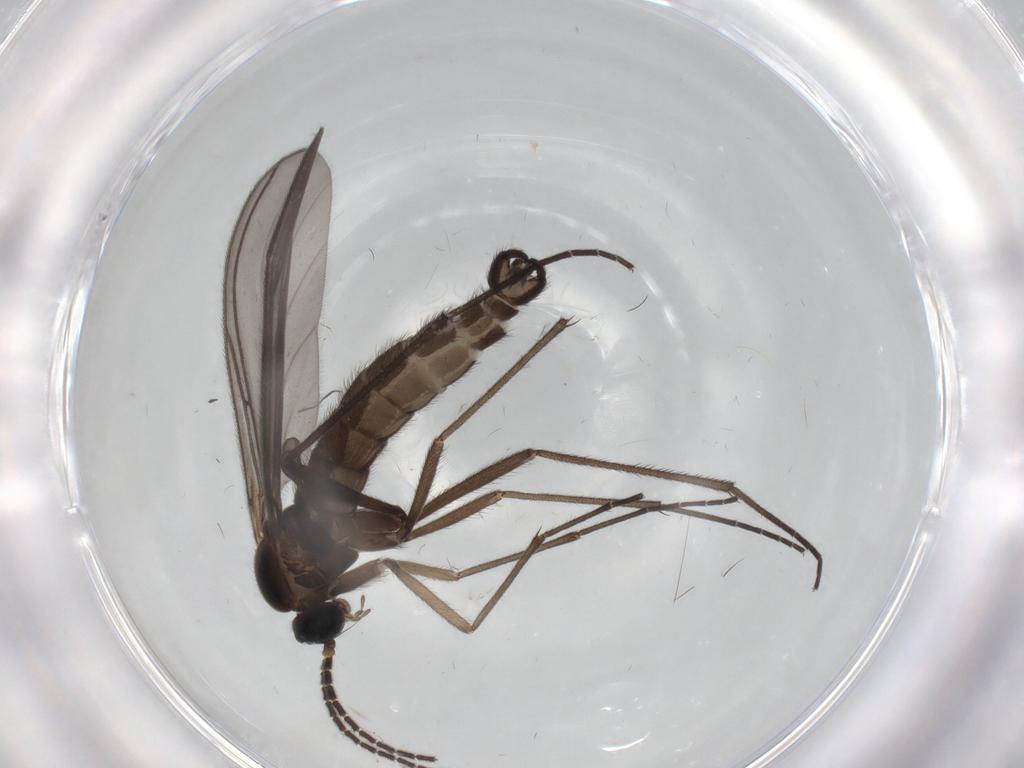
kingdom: Animalia
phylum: Arthropoda
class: Insecta
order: Diptera
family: Sciaridae
